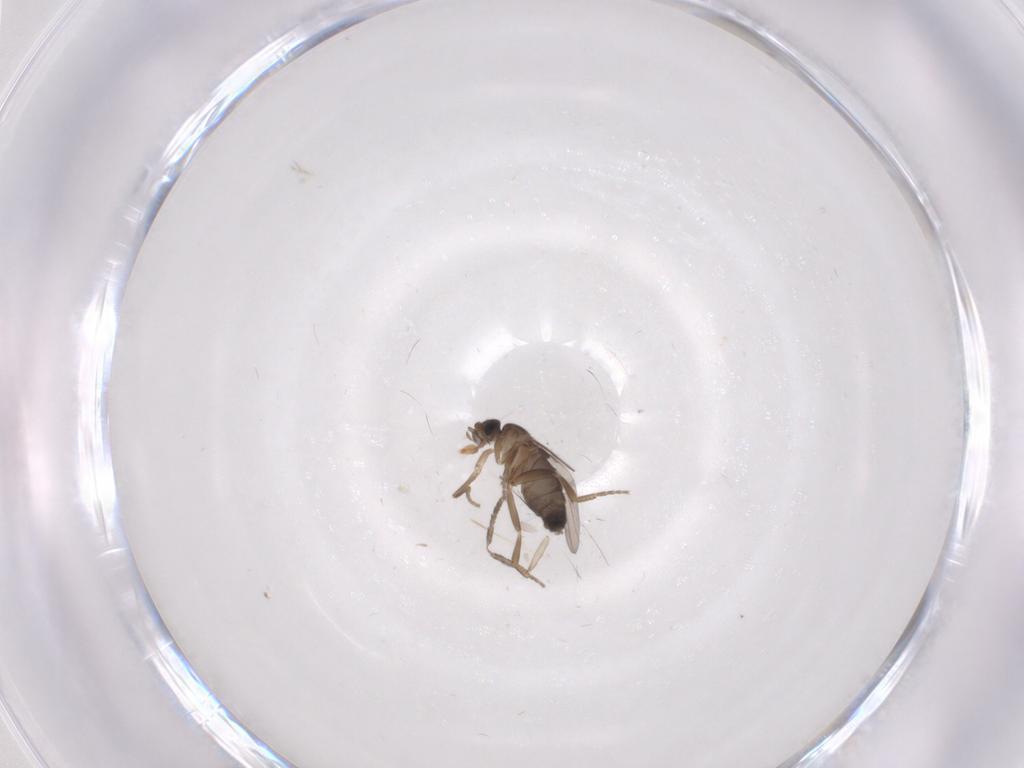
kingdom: Animalia
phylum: Arthropoda
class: Insecta
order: Diptera
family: Phoridae
